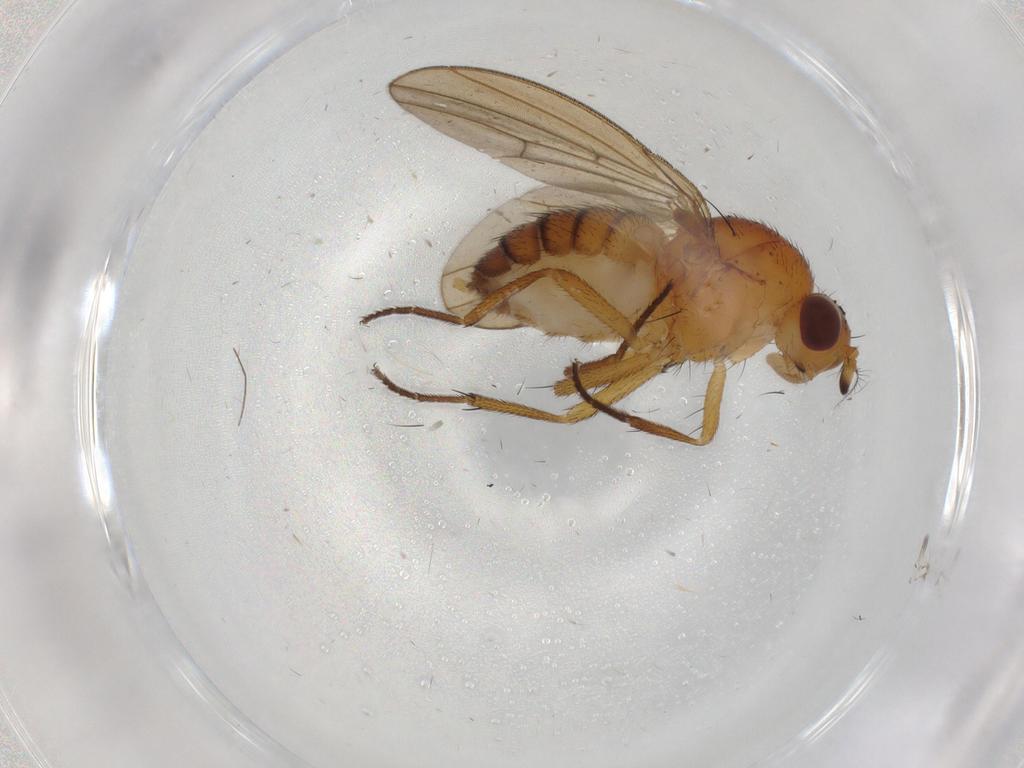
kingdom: Animalia
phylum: Arthropoda
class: Insecta
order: Diptera
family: Lauxaniidae
